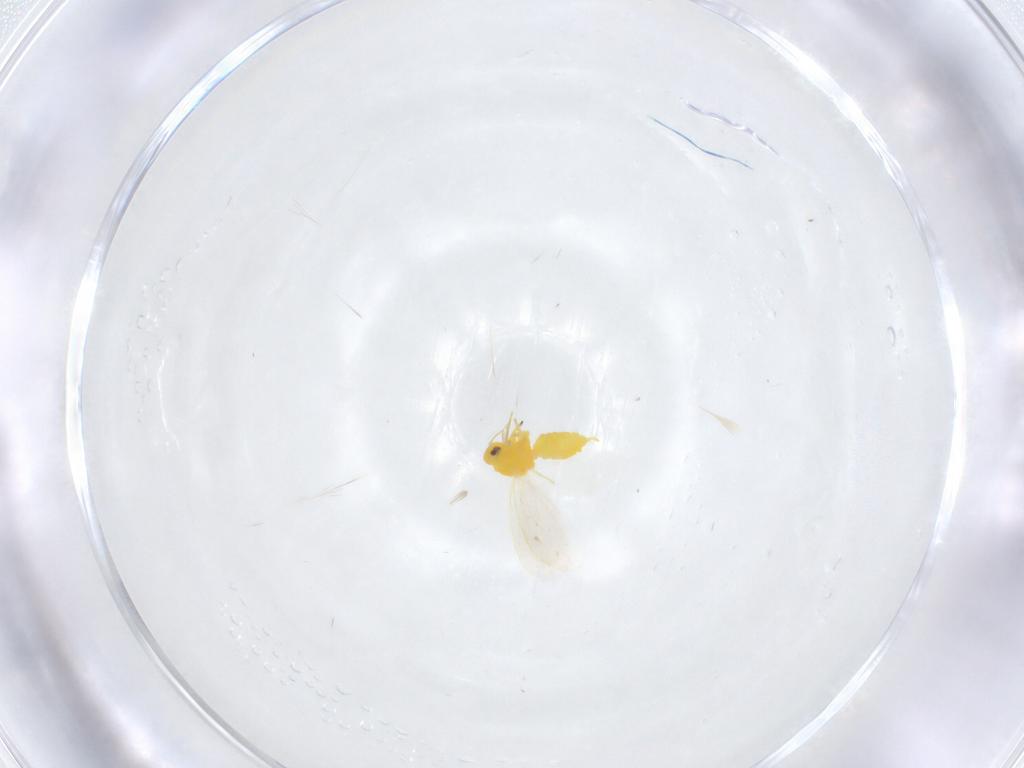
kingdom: Animalia
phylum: Arthropoda
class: Insecta
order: Hemiptera
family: Aleyrodidae
